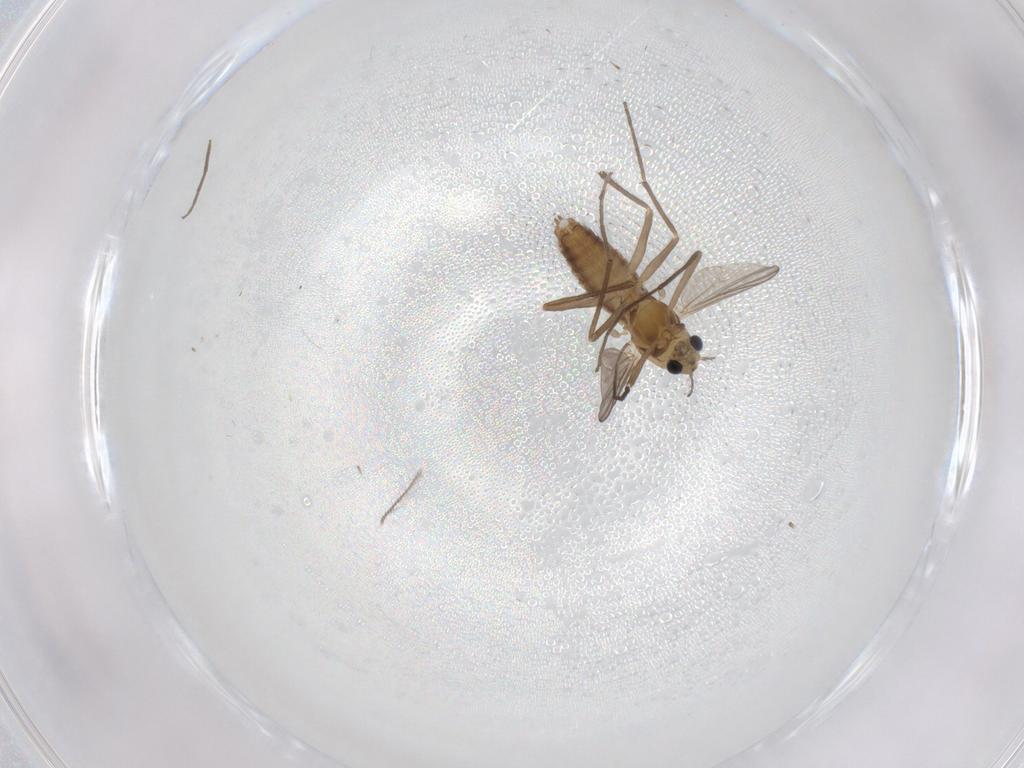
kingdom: Animalia
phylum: Arthropoda
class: Insecta
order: Diptera
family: Chironomidae
